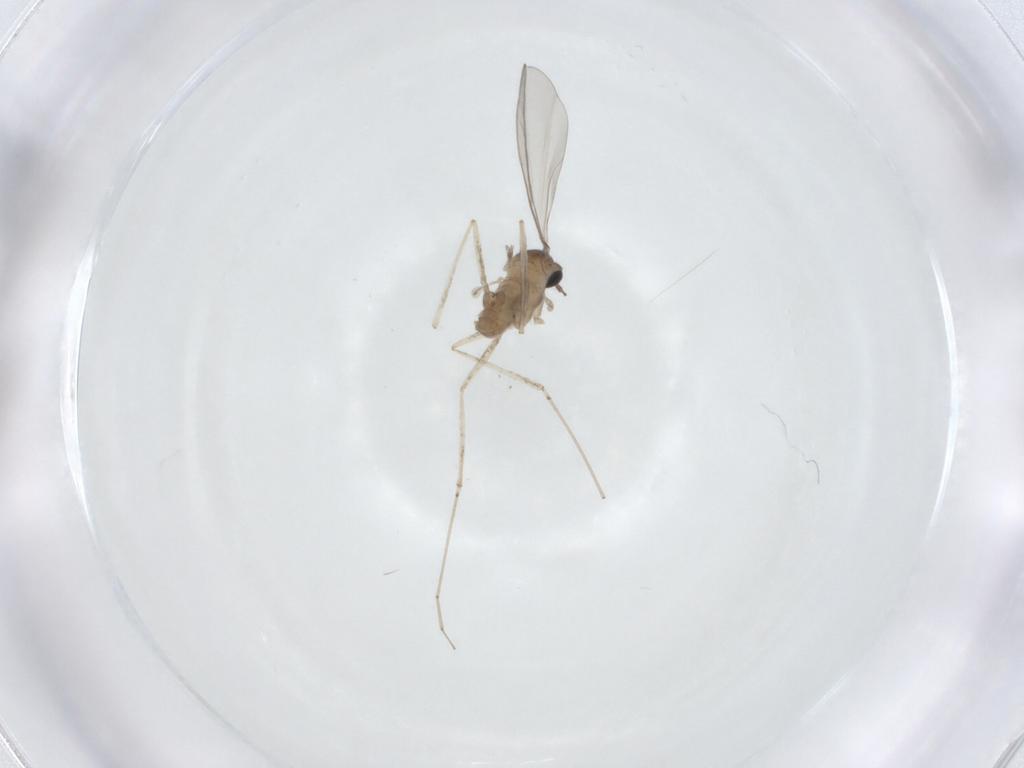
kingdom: Animalia
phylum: Arthropoda
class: Insecta
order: Diptera
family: Cecidomyiidae
